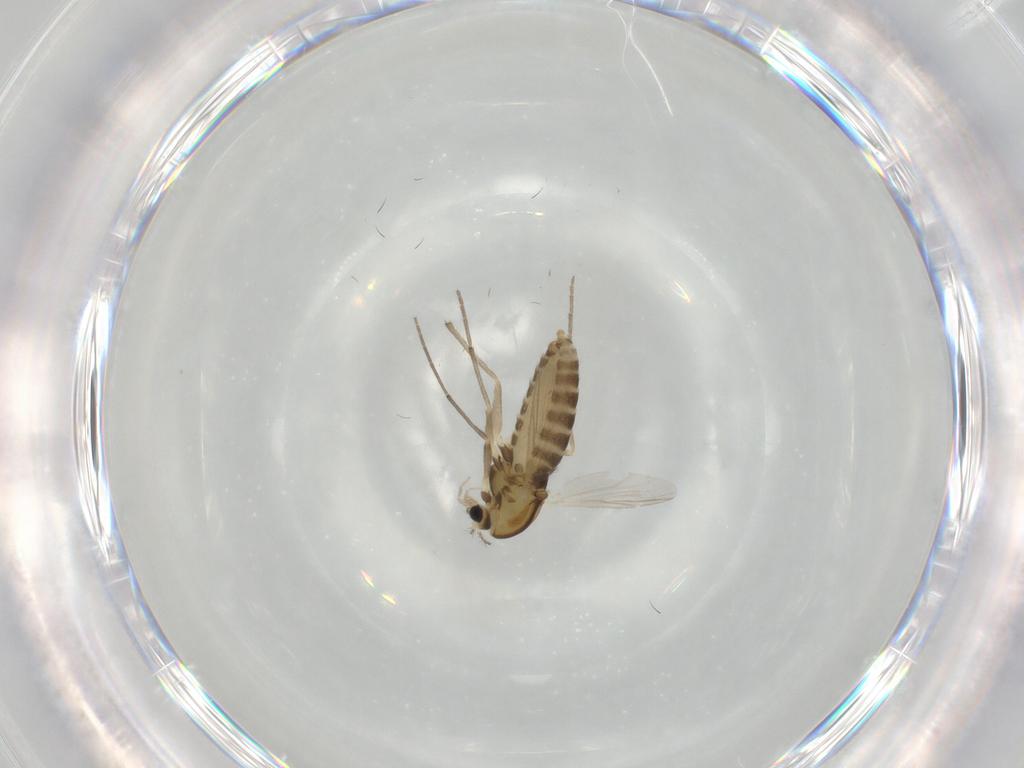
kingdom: Animalia
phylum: Arthropoda
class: Insecta
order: Diptera
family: Chironomidae
